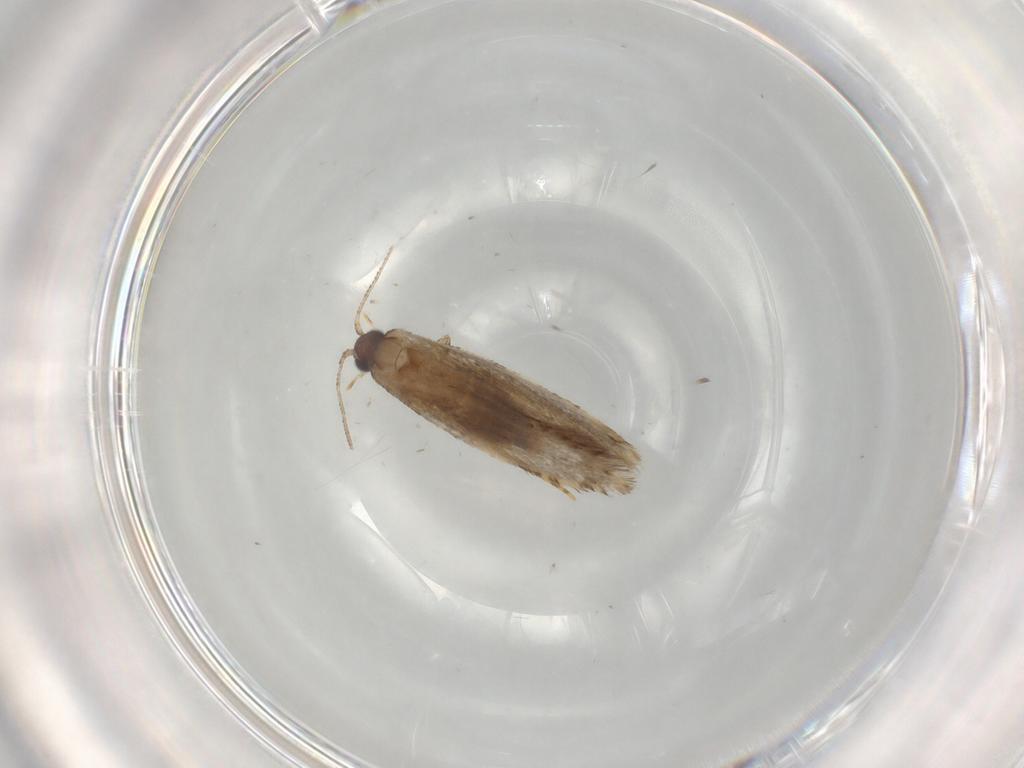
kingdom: Animalia
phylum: Arthropoda
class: Insecta
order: Lepidoptera
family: Tineidae
